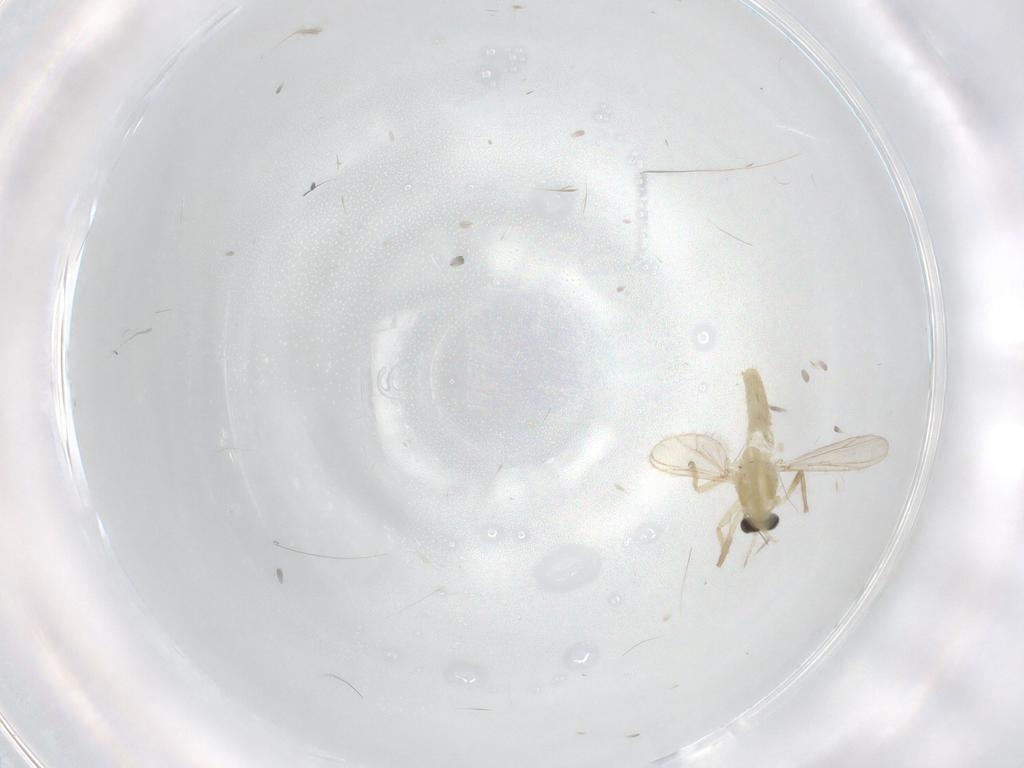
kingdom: Animalia
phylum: Arthropoda
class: Insecta
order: Diptera
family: Chironomidae
